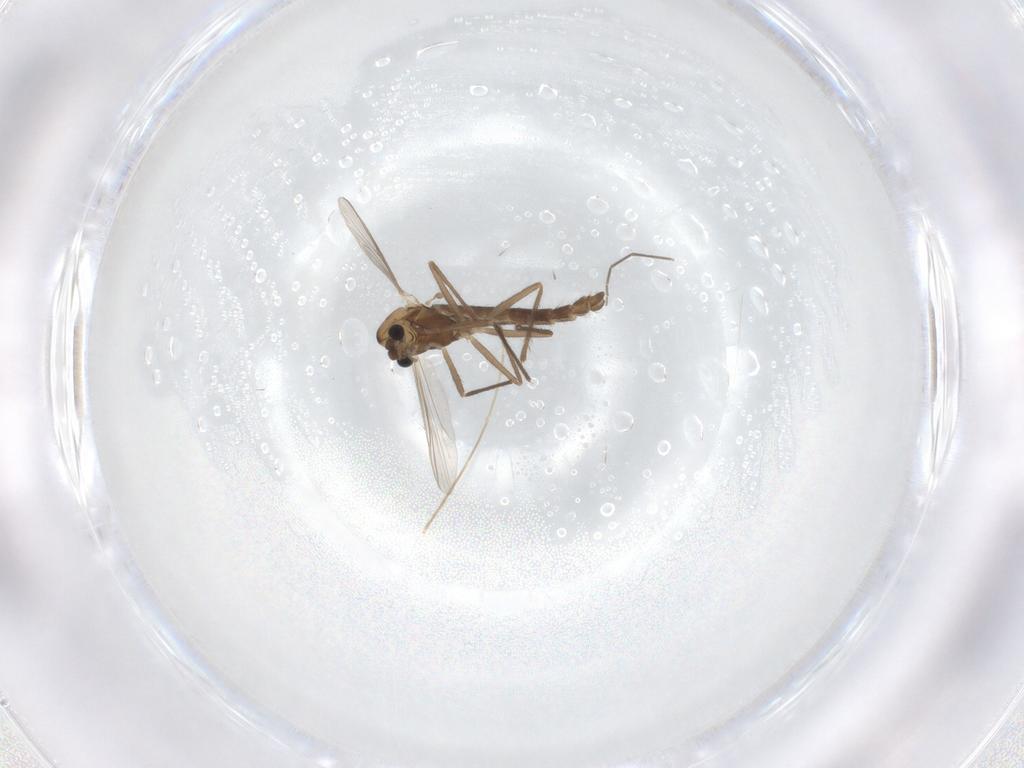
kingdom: Animalia
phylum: Arthropoda
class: Insecta
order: Diptera
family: Chironomidae
